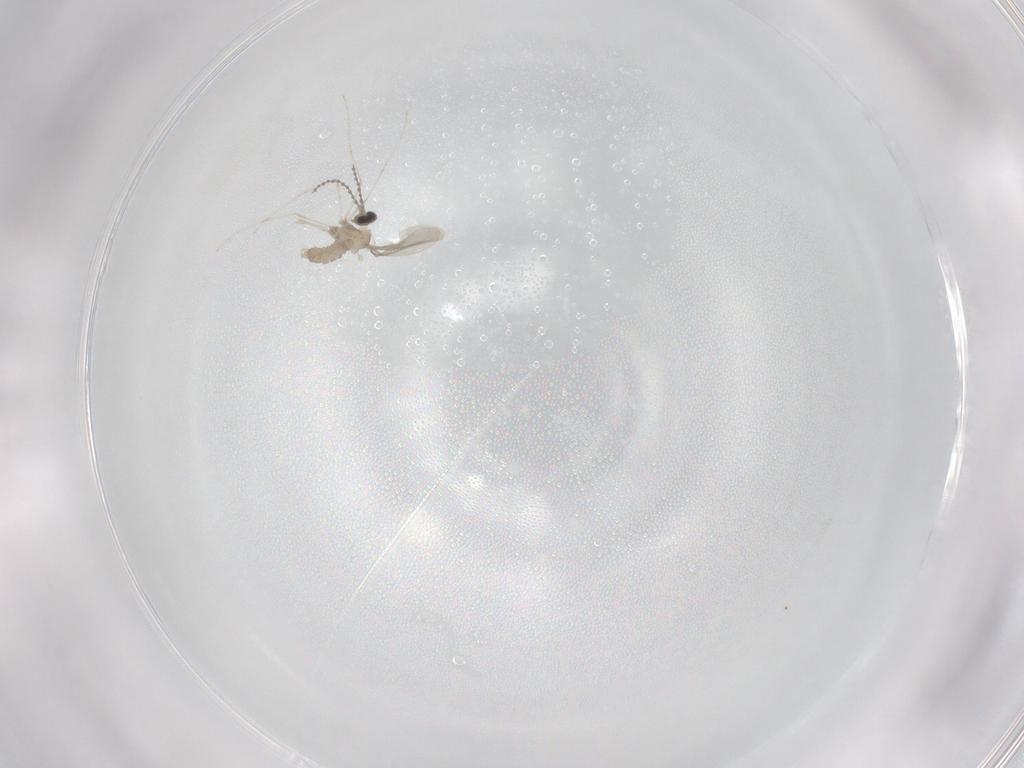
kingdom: Animalia
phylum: Arthropoda
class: Insecta
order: Diptera
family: Cecidomyiidae
